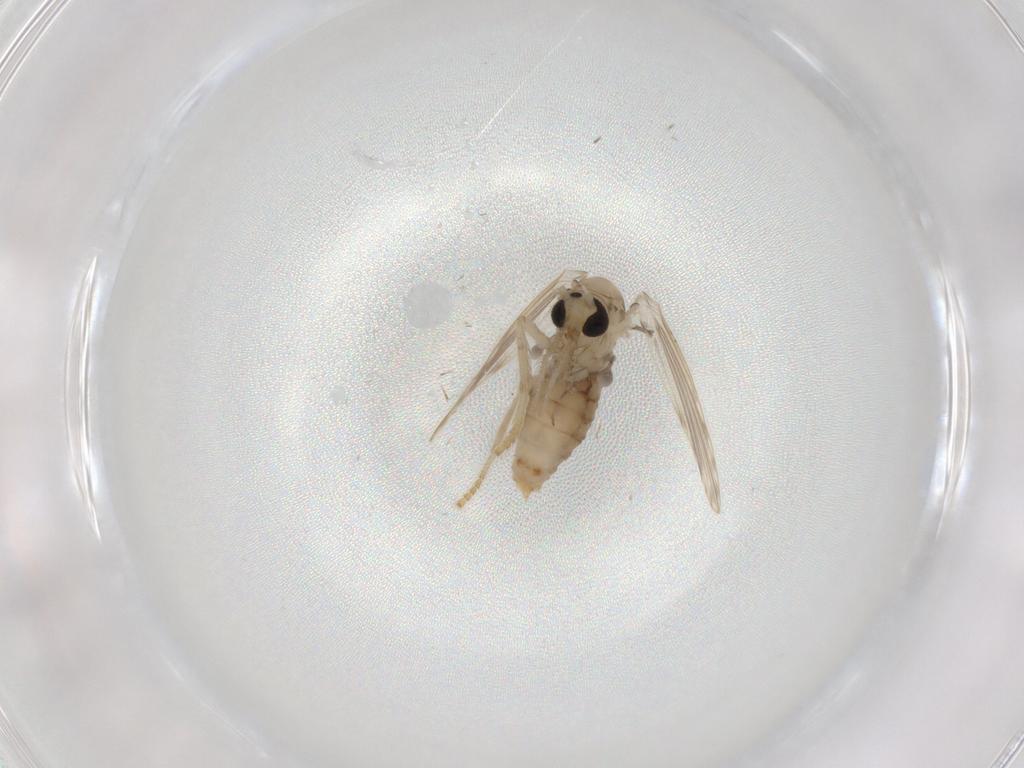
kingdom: Animalia
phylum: Arthropoda
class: Insecta
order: Diptera
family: Psychodidae
